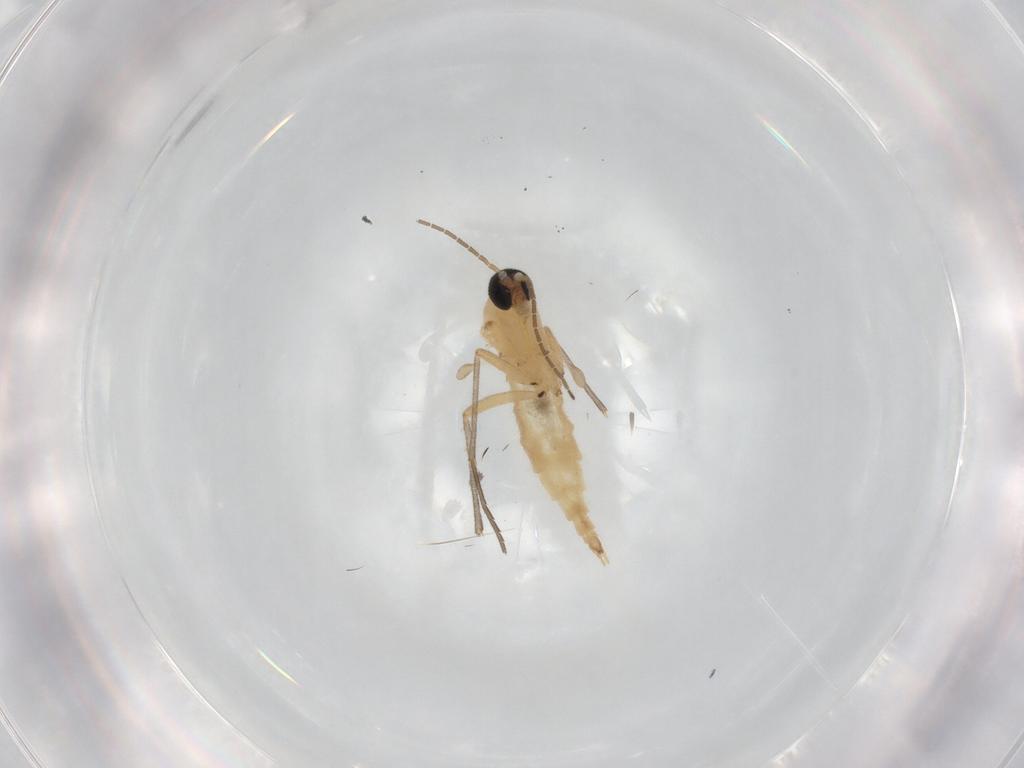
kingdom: Animalia
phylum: Arthropoda
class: Insecta
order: Diptera
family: Sciaridae
